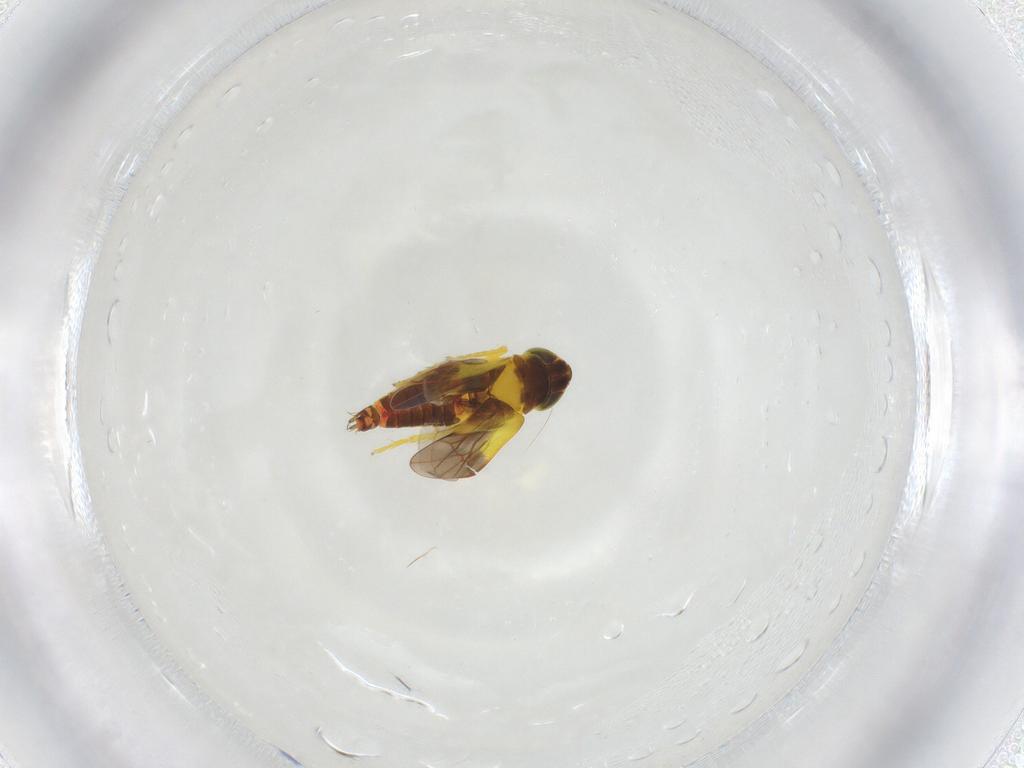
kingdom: Animalia
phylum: Arthropoda
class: Insecta
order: Hemiptera
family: Cicadellidae
